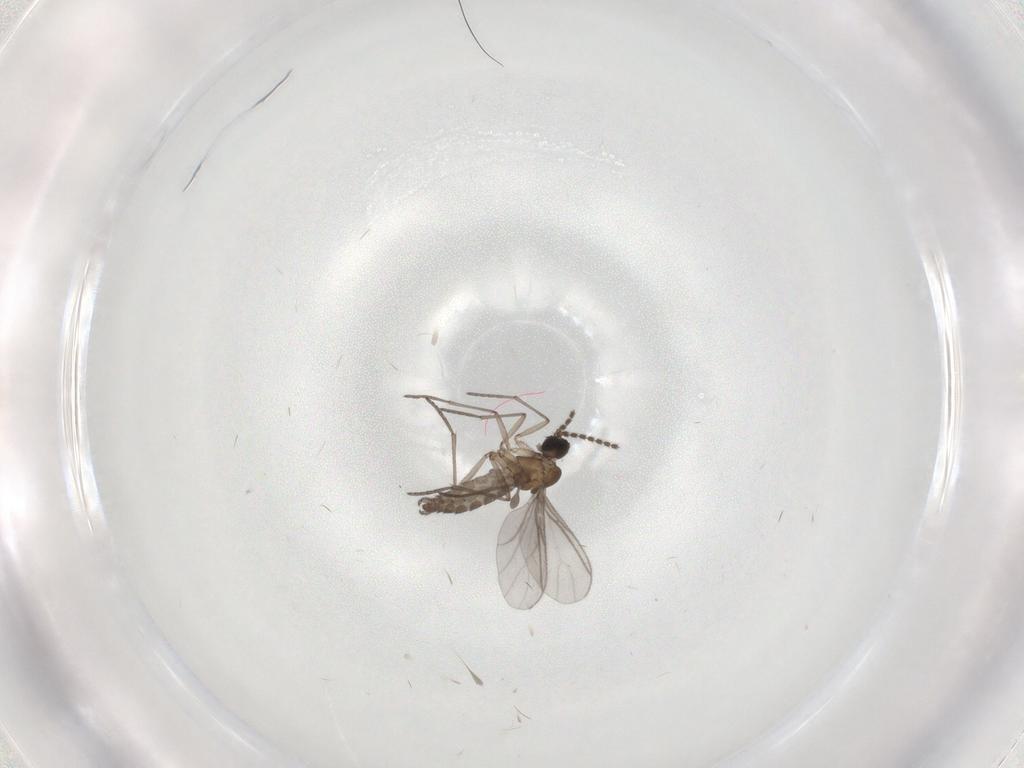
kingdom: Animalia
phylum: Arthropoda
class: Insecta
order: Diptera
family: Sciaridae
